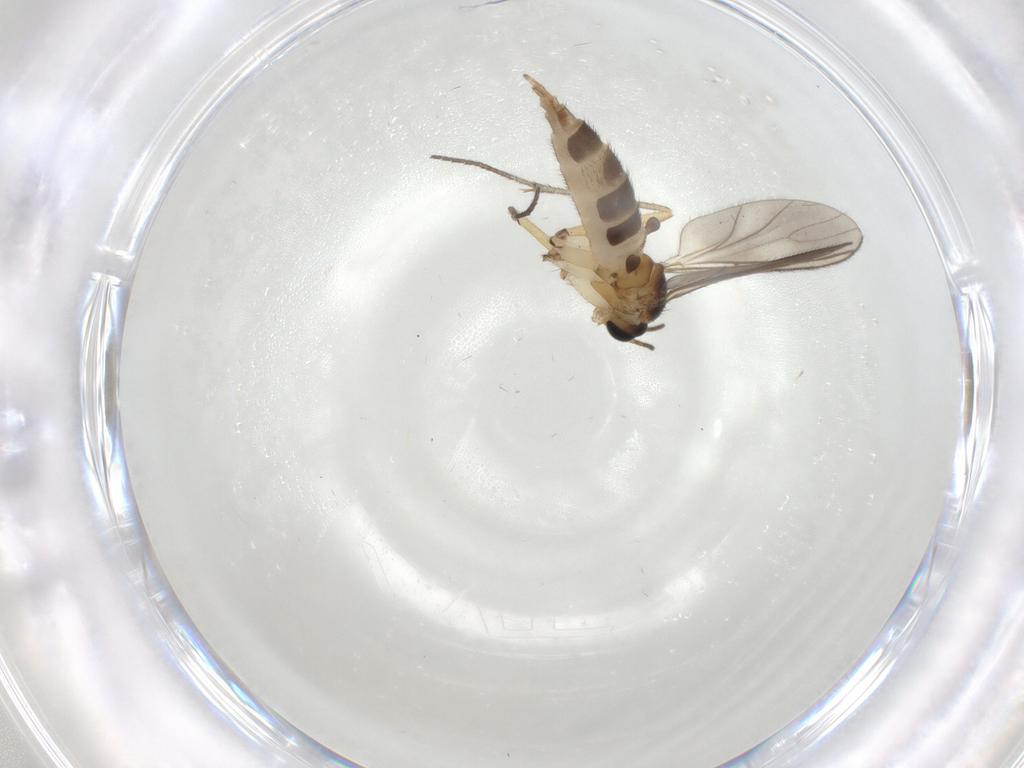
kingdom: Animalia
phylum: Arthropoda
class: Insecta
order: Diptera
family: Sciaridae
